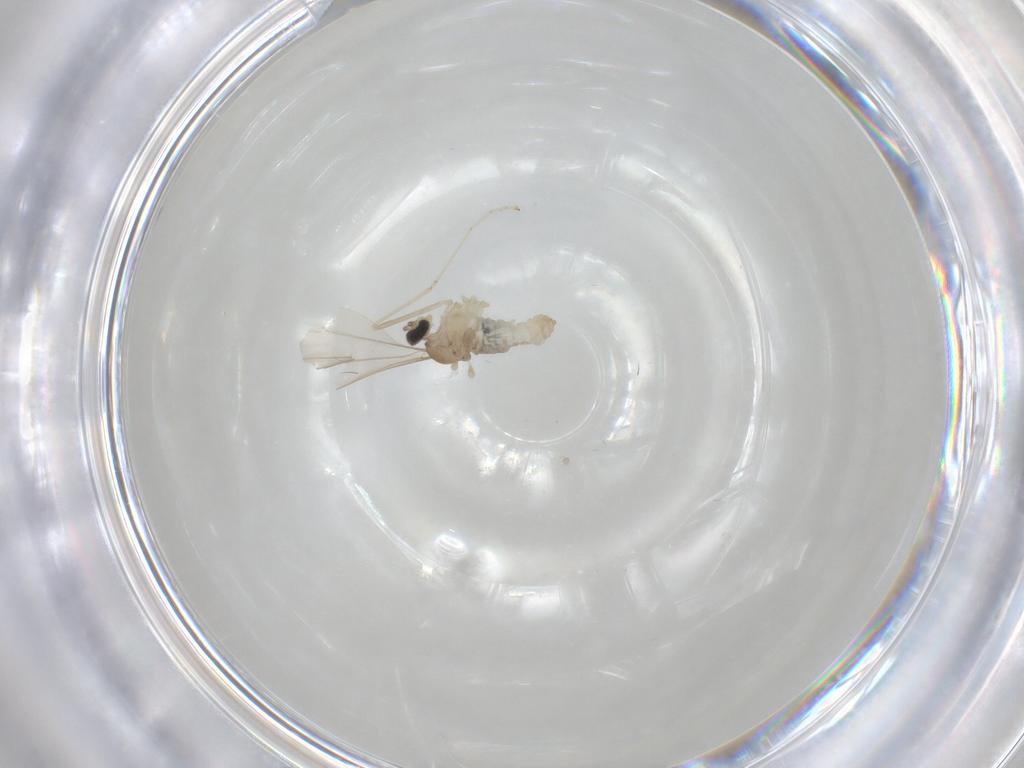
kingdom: Animalia
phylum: Arthropoda
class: Insecta
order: Diptera
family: Cecidomyiidae
